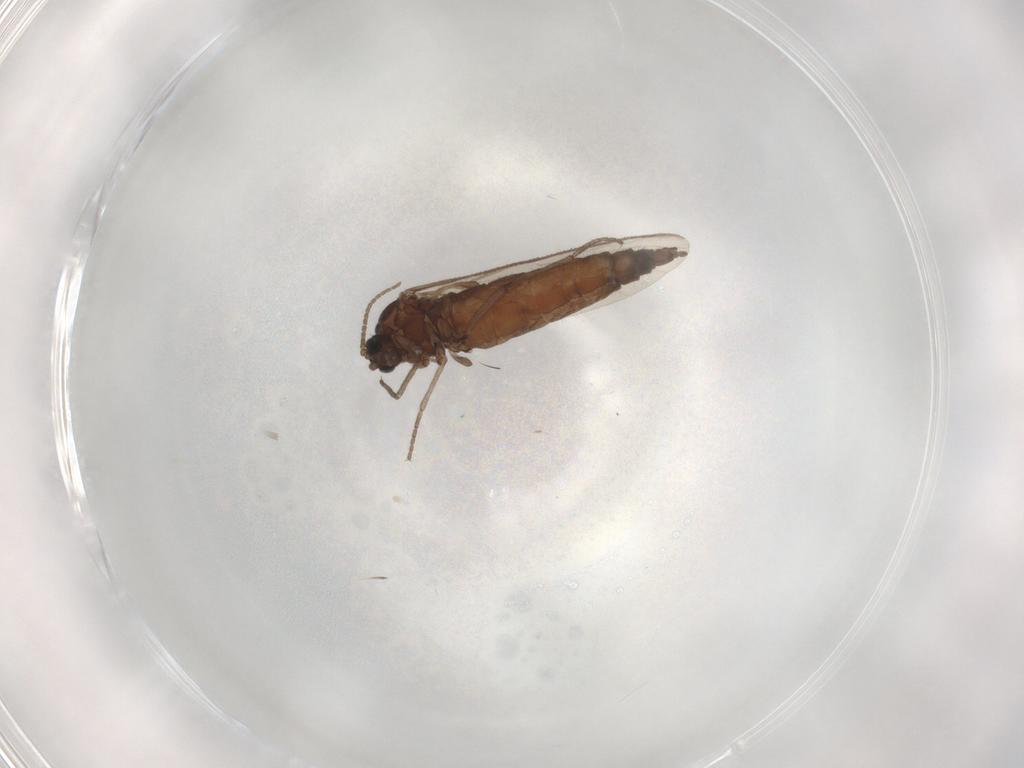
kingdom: Animalia
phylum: Arthropoda
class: Insecta
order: Diptera
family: Sciaridae
